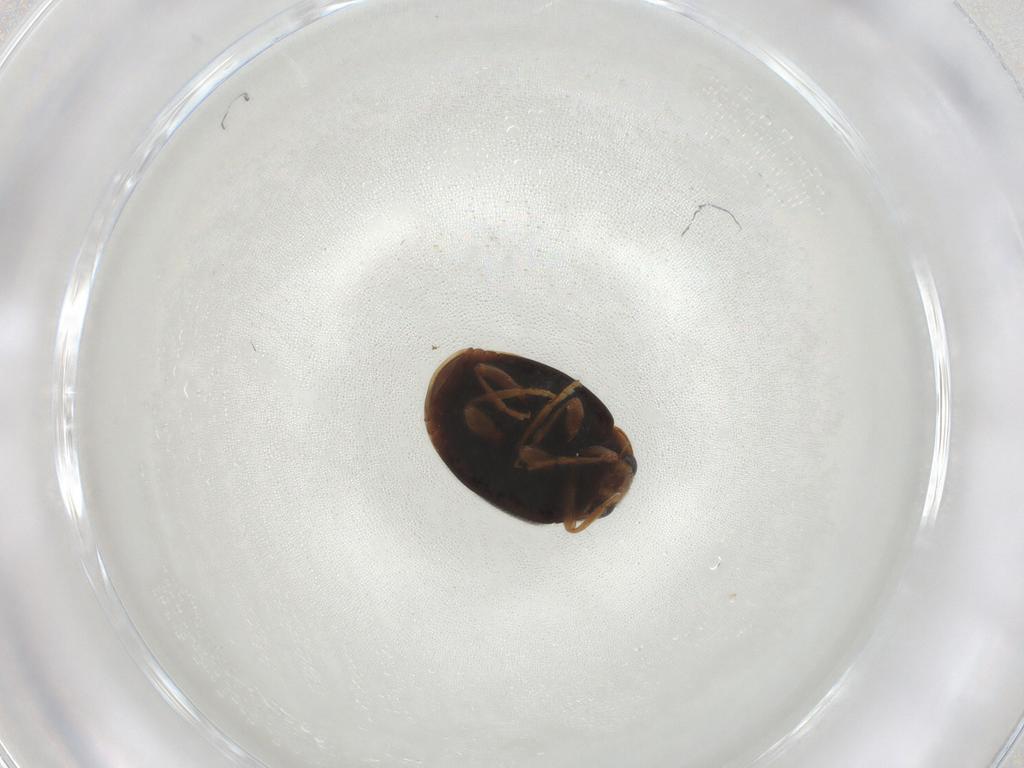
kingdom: Animalia
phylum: Arthropoda
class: Insecta
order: Coleoptera
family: Coccinellidae
